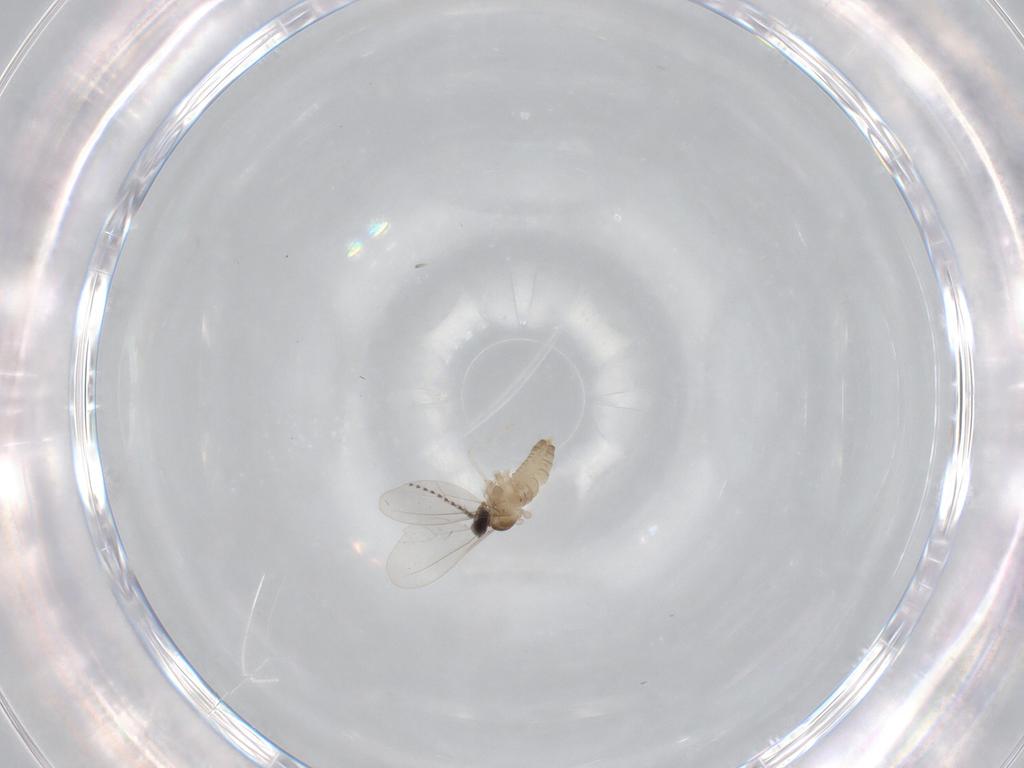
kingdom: Animalia
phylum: Arthropoda
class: Insecta
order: Diptera
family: Cecidomyiidae
